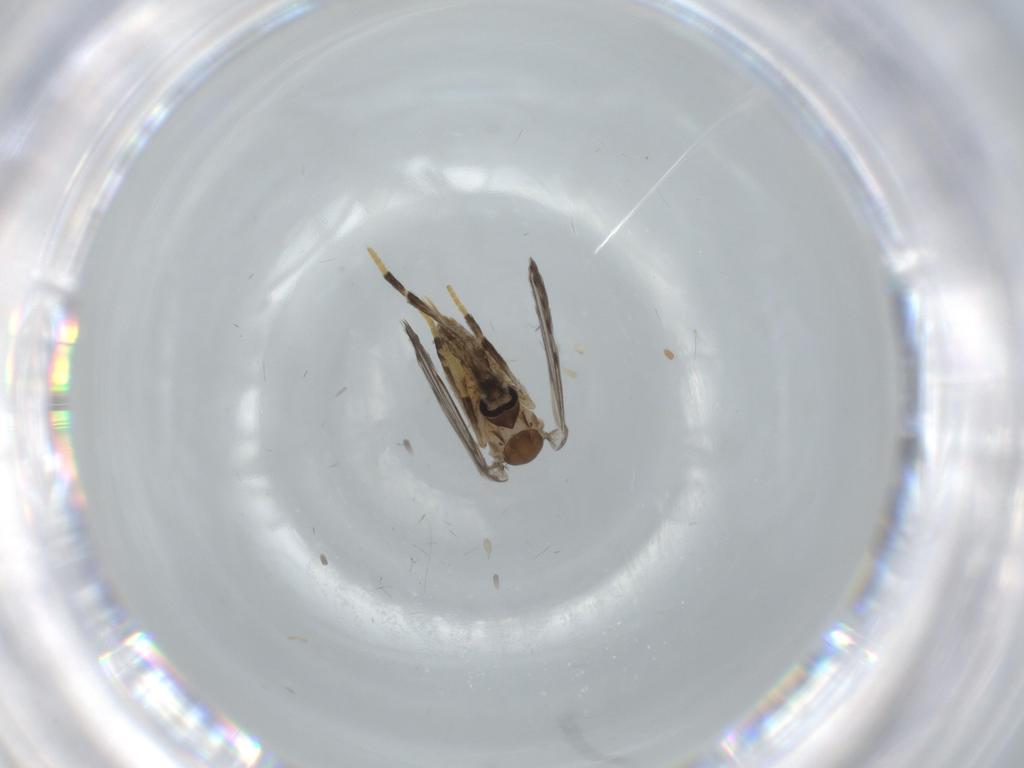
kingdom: Animalia
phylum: Arthropoda
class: Insecta
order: Diptera
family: Psychodidae
